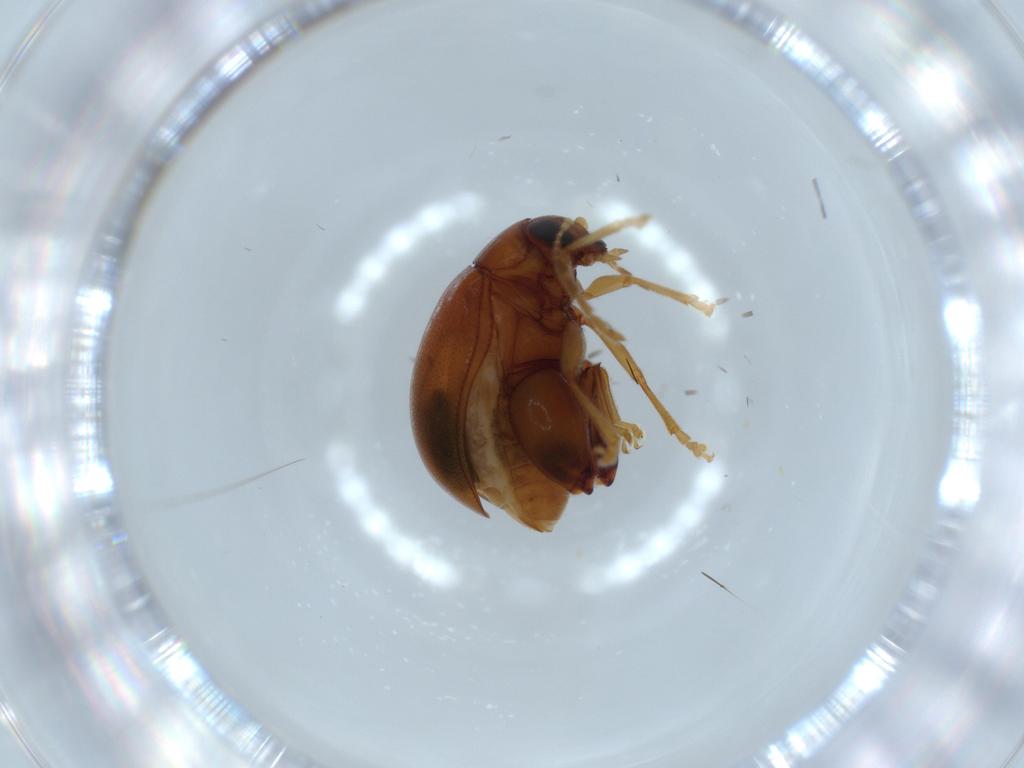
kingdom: Animalia
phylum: Arthropoda
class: Insecta
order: Coleoptera
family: Chrysomelidae
